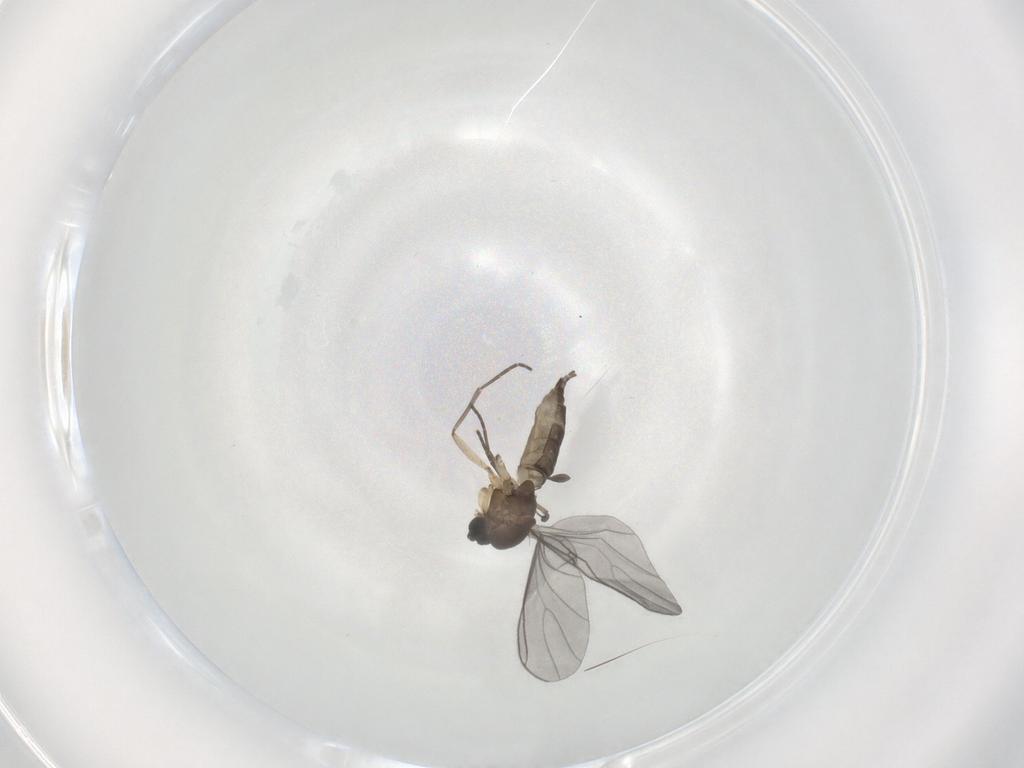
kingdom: Animalia
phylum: Arthropoda
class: Insecta
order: Diptera
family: Sciaridae
